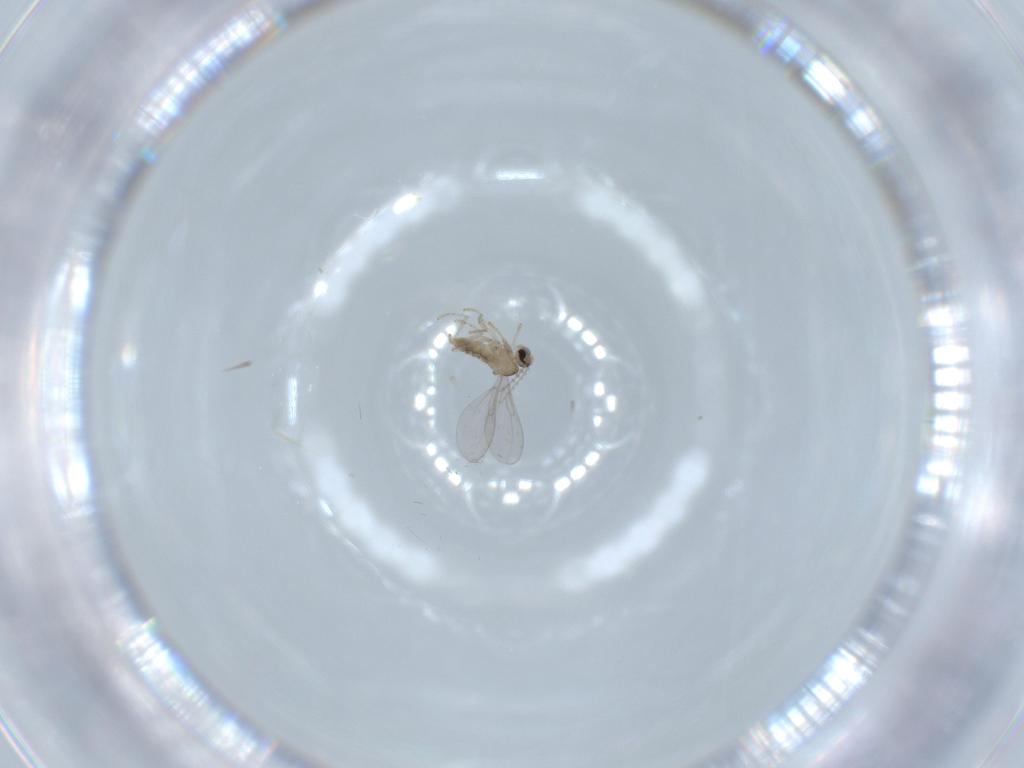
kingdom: Animalia
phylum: Arthropoda
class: Insecta
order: Diptera
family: Cecidomyiidae
